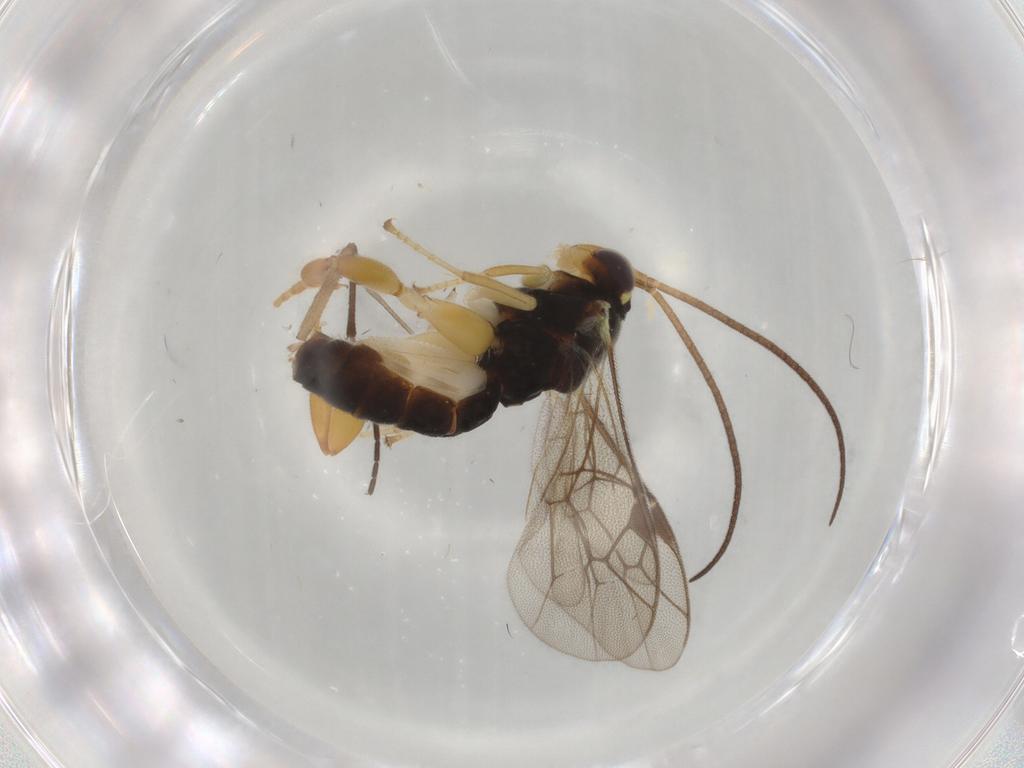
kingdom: Animalia
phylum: Arthropoda
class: Insecta
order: Hymenoptera
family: Ichneumonidae
